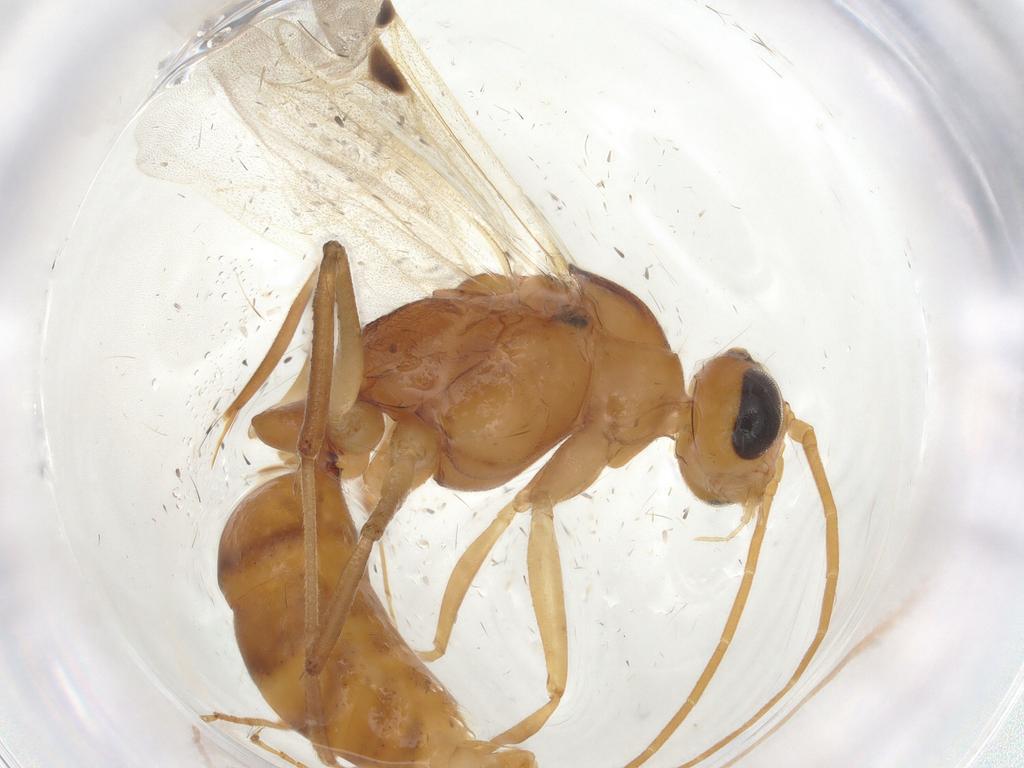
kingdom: Animalia
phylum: Arthropoda
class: Insecta
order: Hymenoptera
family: Formicidae
